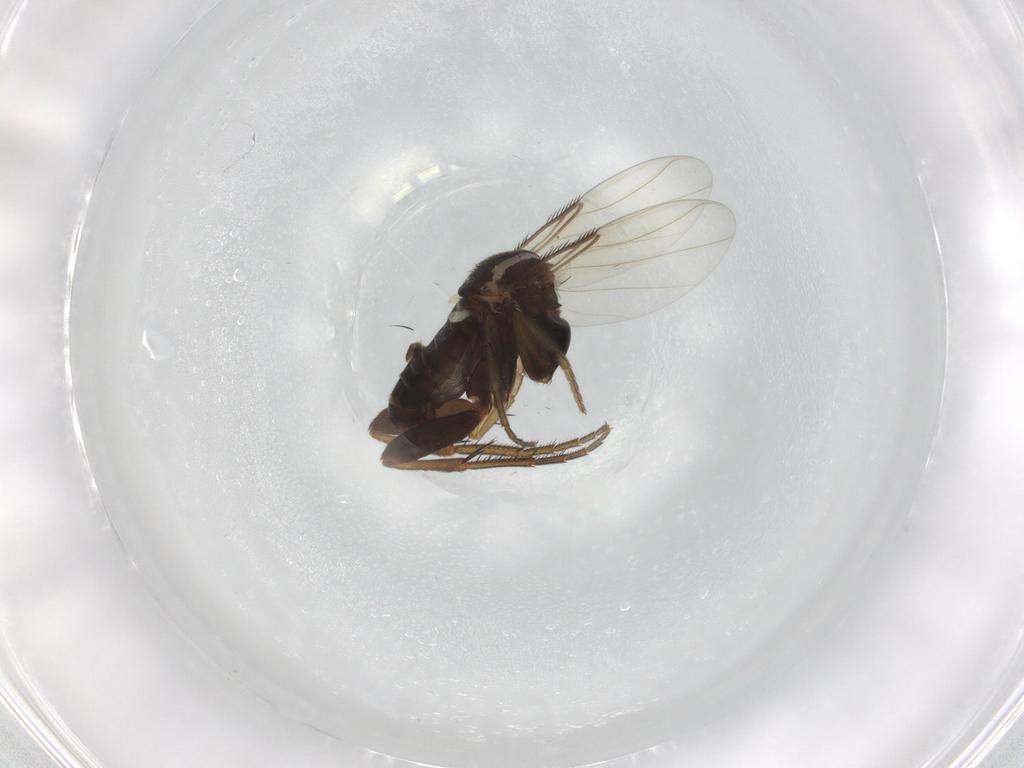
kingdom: Animalia
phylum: Arthropoda
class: Insecta
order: Diptera
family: Phoridae
